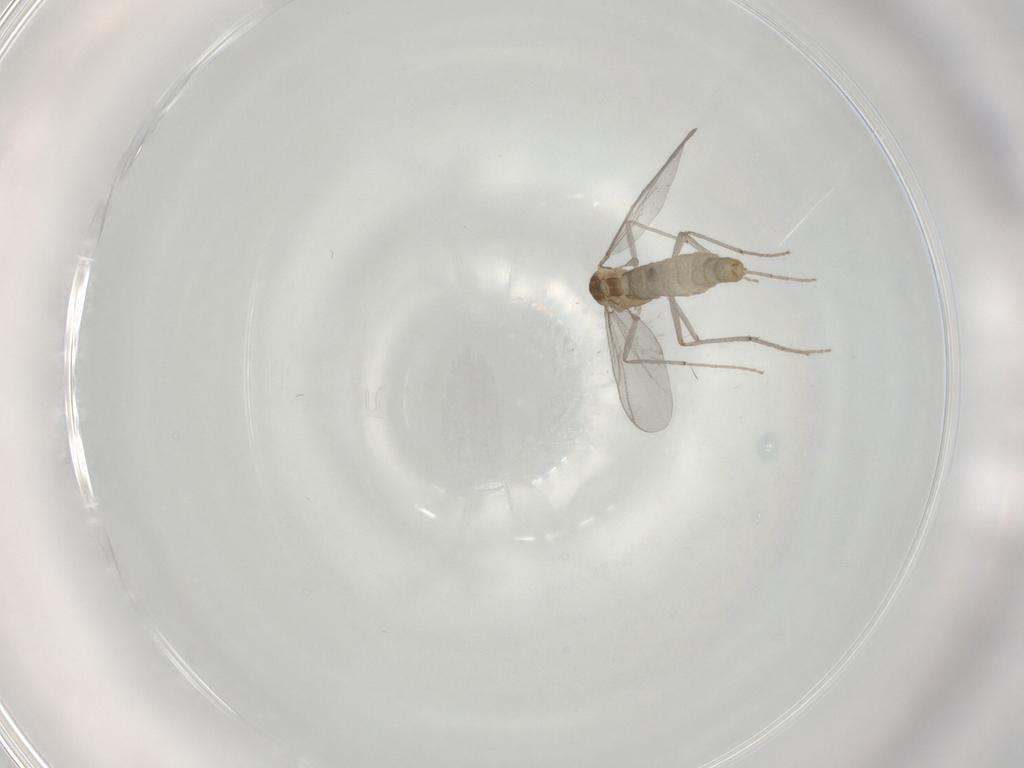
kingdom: Animalia
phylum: Arthropoda
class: Insecta
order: Diptera
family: Chironomidae
